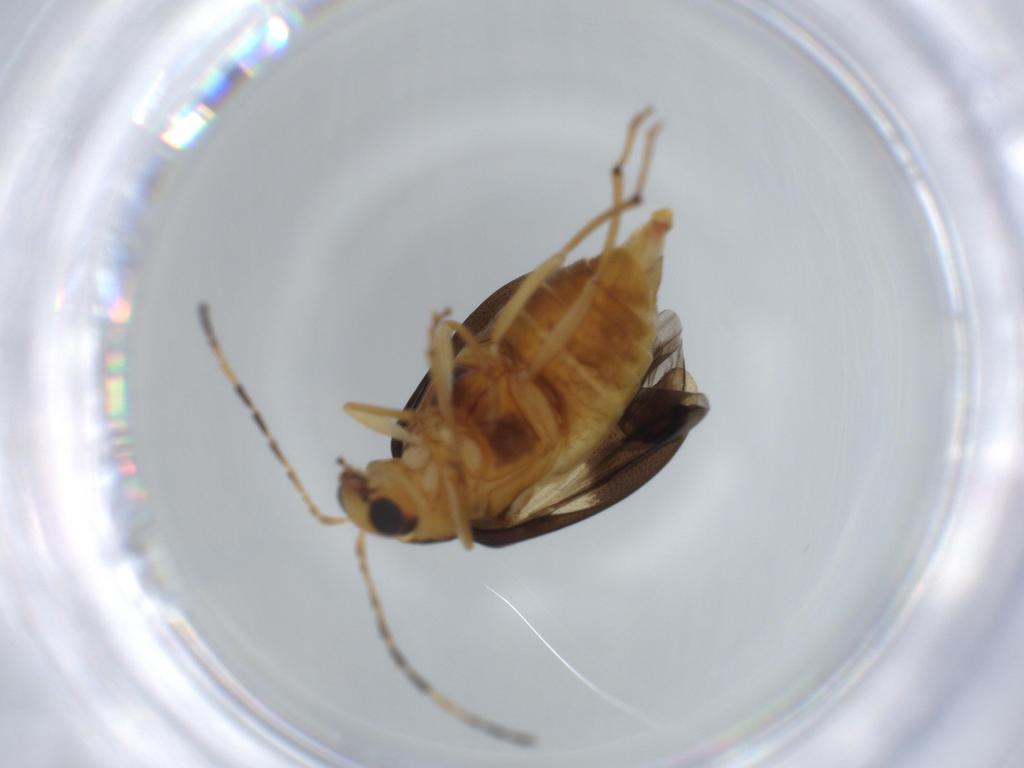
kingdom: Animalia
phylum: Arthropoda
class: Insecta
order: Coleoptera
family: Chrysomelidae
